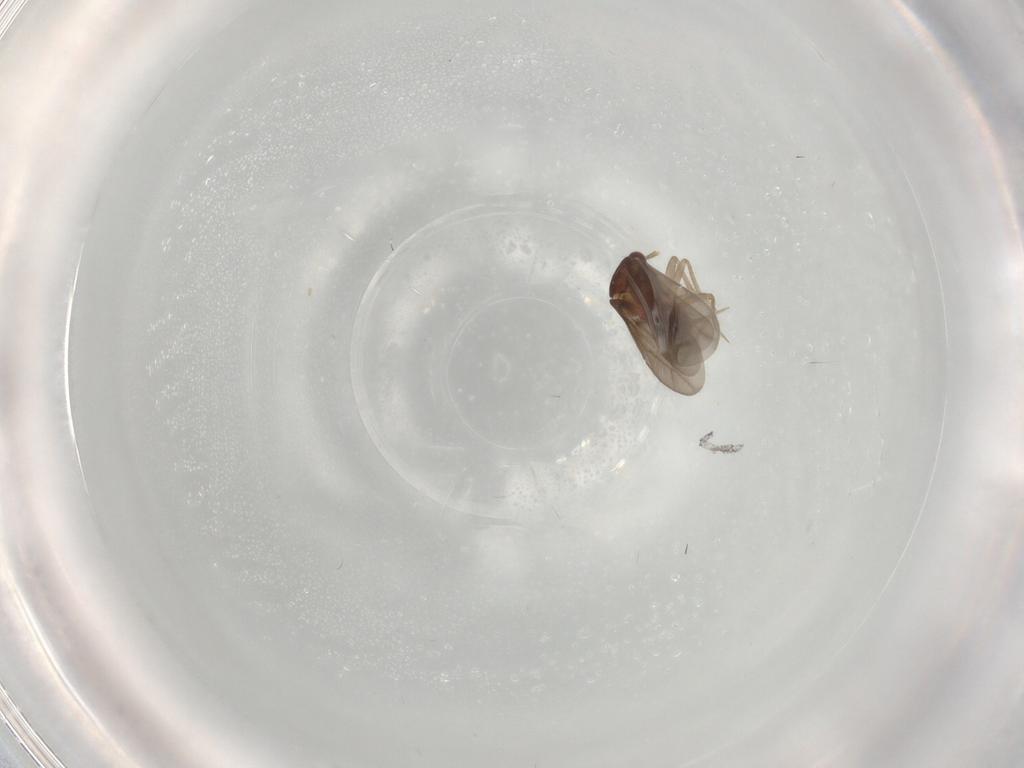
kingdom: Animalia
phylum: Arthropoda
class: Insecta
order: Hemiptera
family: Ceratocombidae
